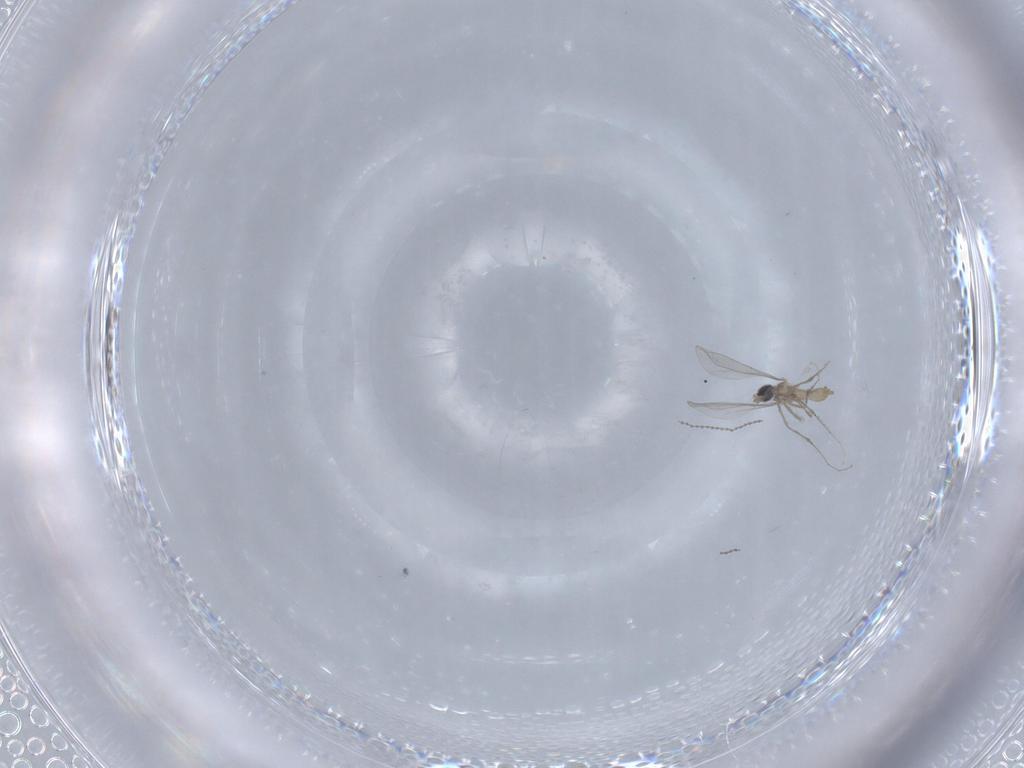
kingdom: Animalia
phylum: Arthropoda
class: Insecta
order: Diptera
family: Cecidomyiidae
